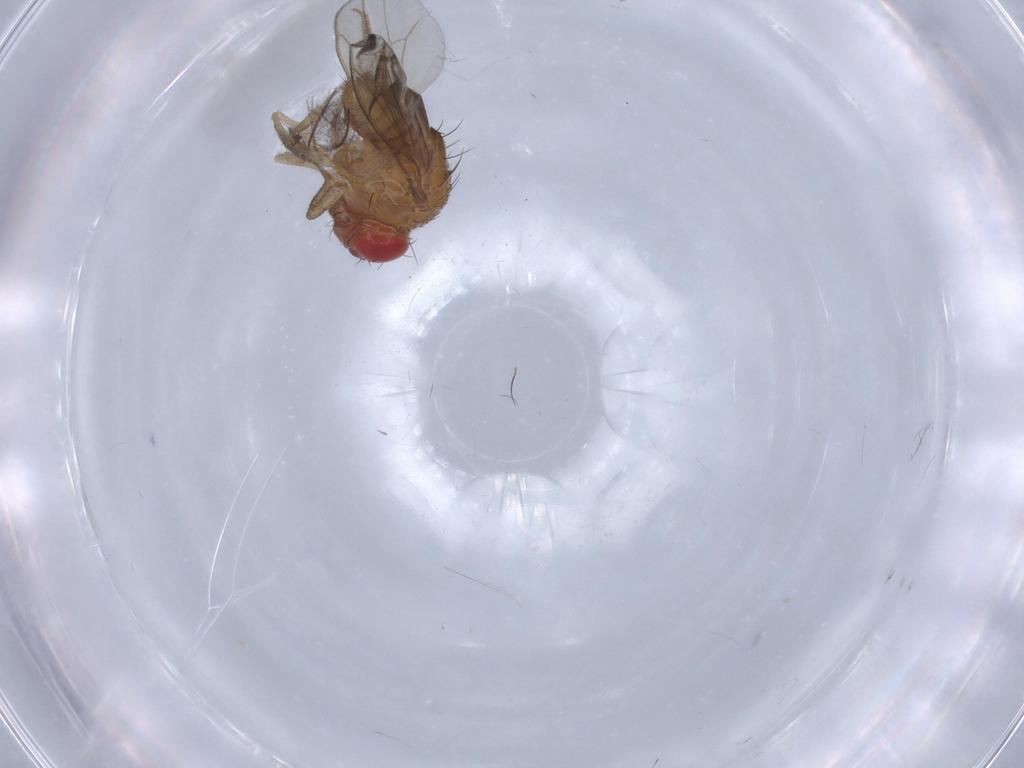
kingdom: Animalia
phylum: Arthropoda
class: Insecta
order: Diptera
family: Drosophilidae
